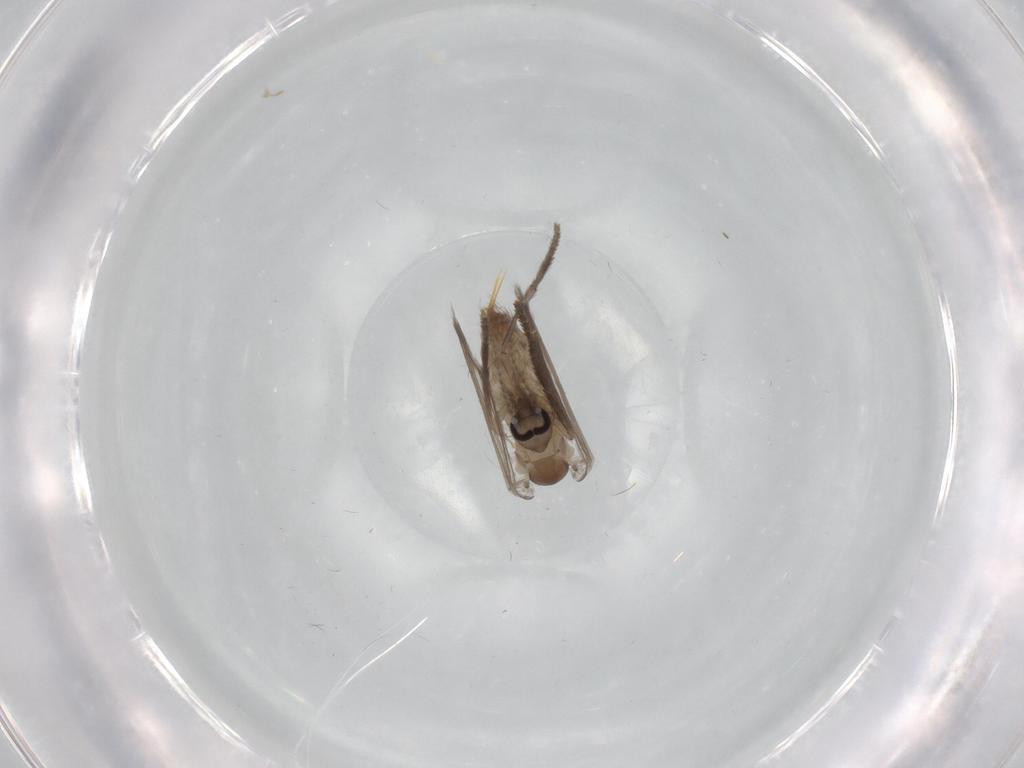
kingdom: Animalia
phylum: Arthropoda
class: Insecta
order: Diptera
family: Psychodidae
